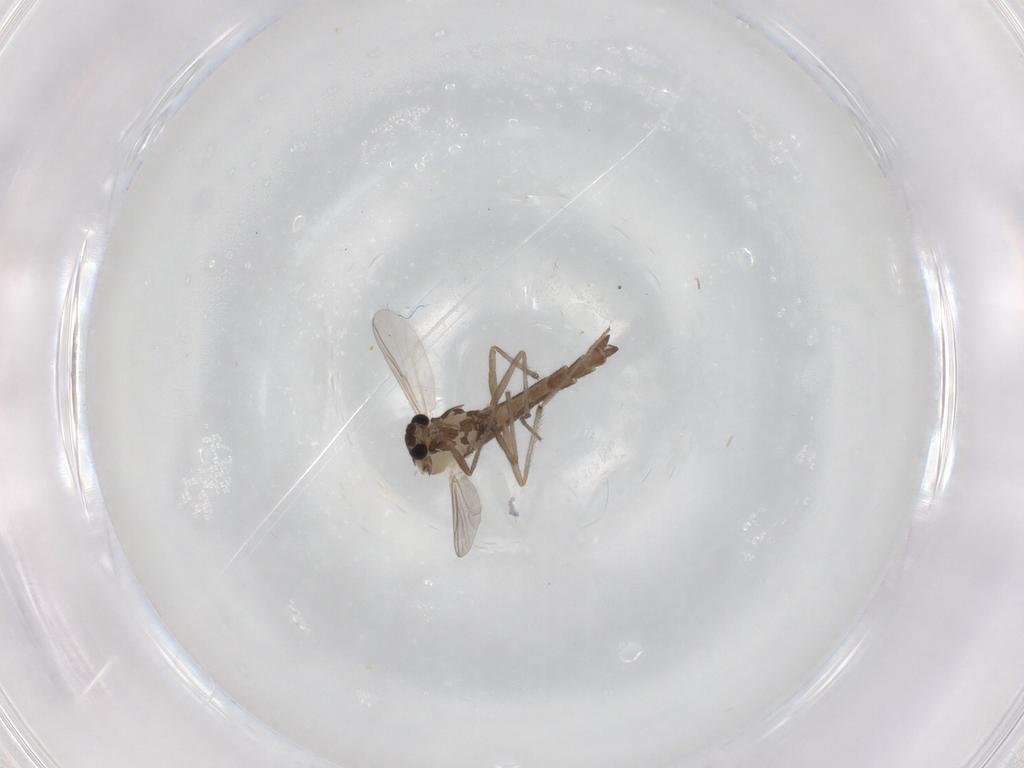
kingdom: Animalia
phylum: Arthropoda
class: Insecta
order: Diptera
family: Chironomidae
